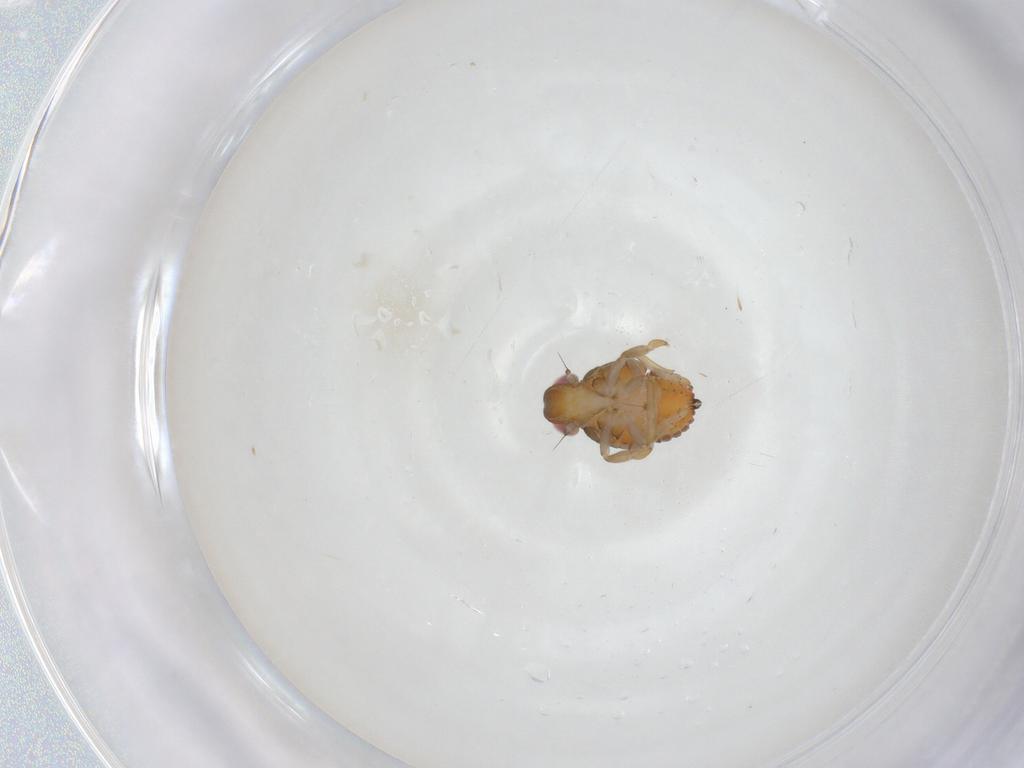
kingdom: Animalia
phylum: Arthropoda
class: Insecta
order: Hemiptera
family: Issidae
